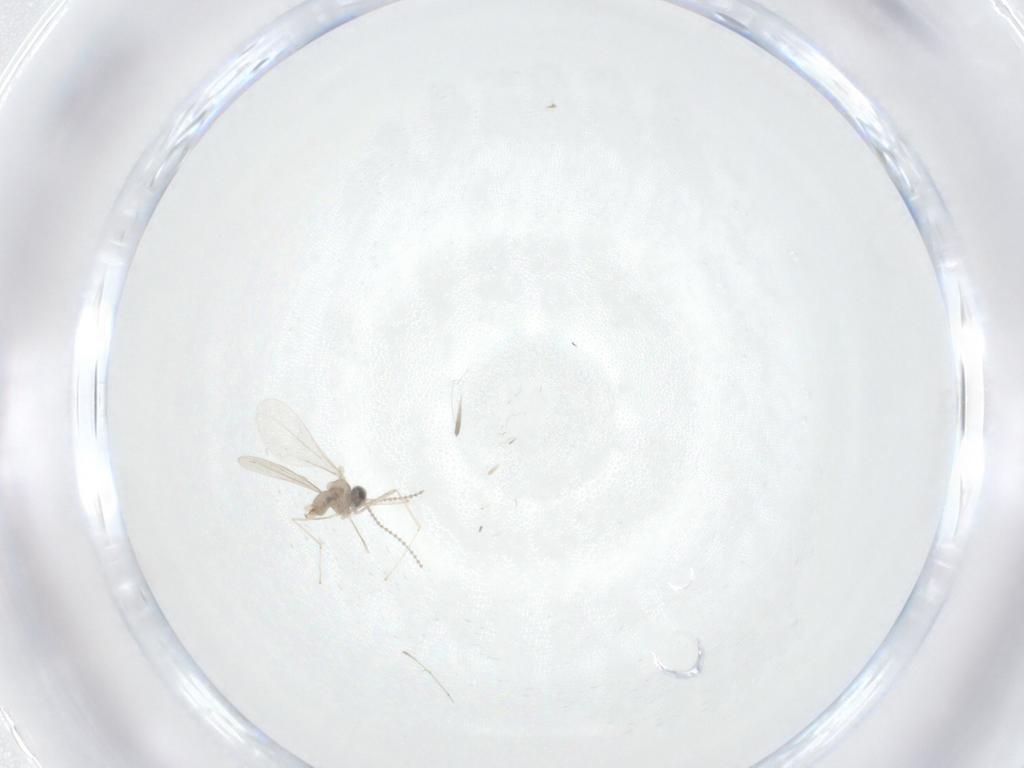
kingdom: Animalia
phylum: Arthropoda
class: Insecta
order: Diptera
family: Cecidomyiidae
